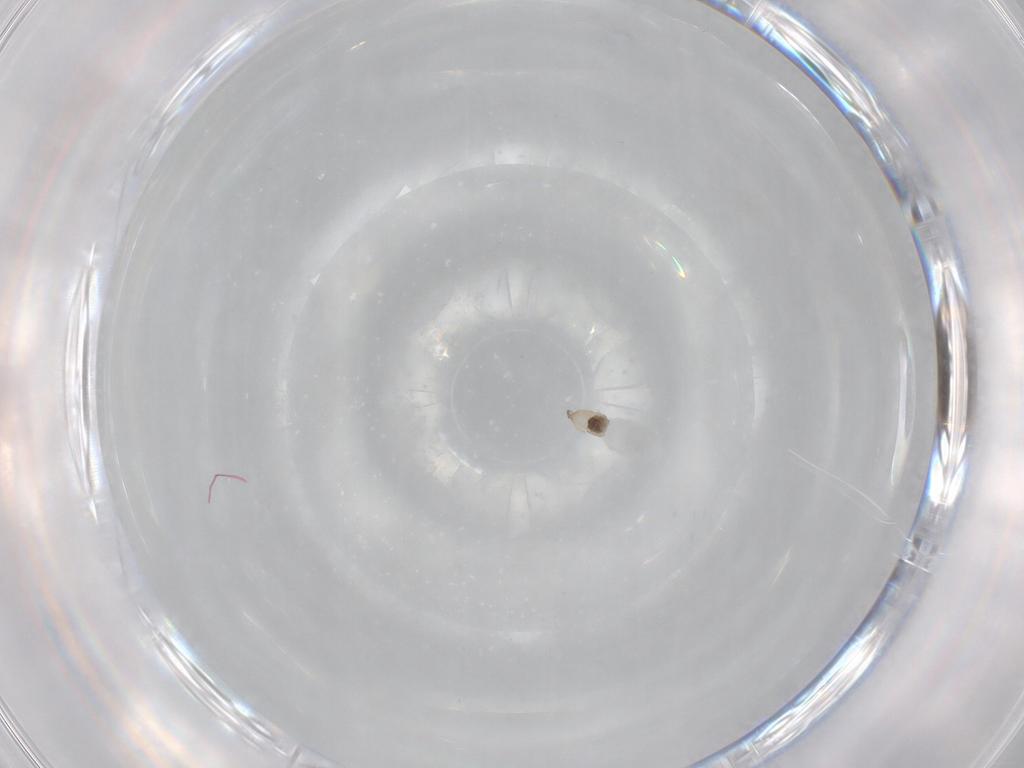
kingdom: Animalia
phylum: Arthropoda
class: Insecta
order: Diptera
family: Cecidomyiidae
